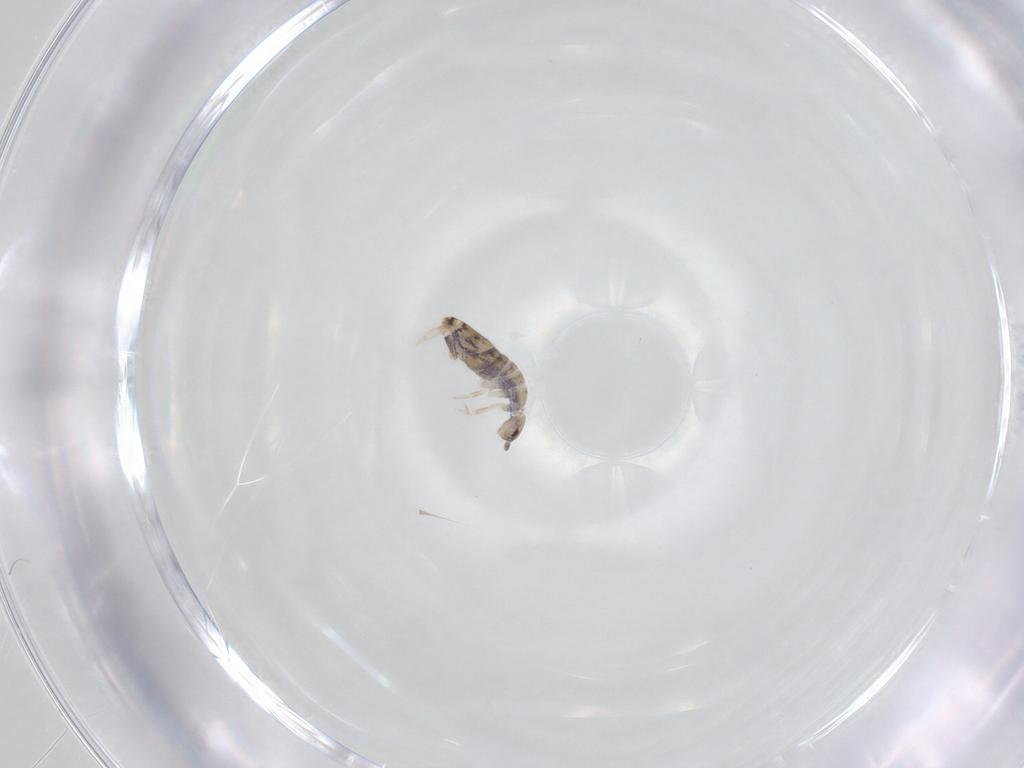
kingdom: Animalia
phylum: Arthropoda
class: Collembola
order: Entomobryomorpha
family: Entomobryidae
